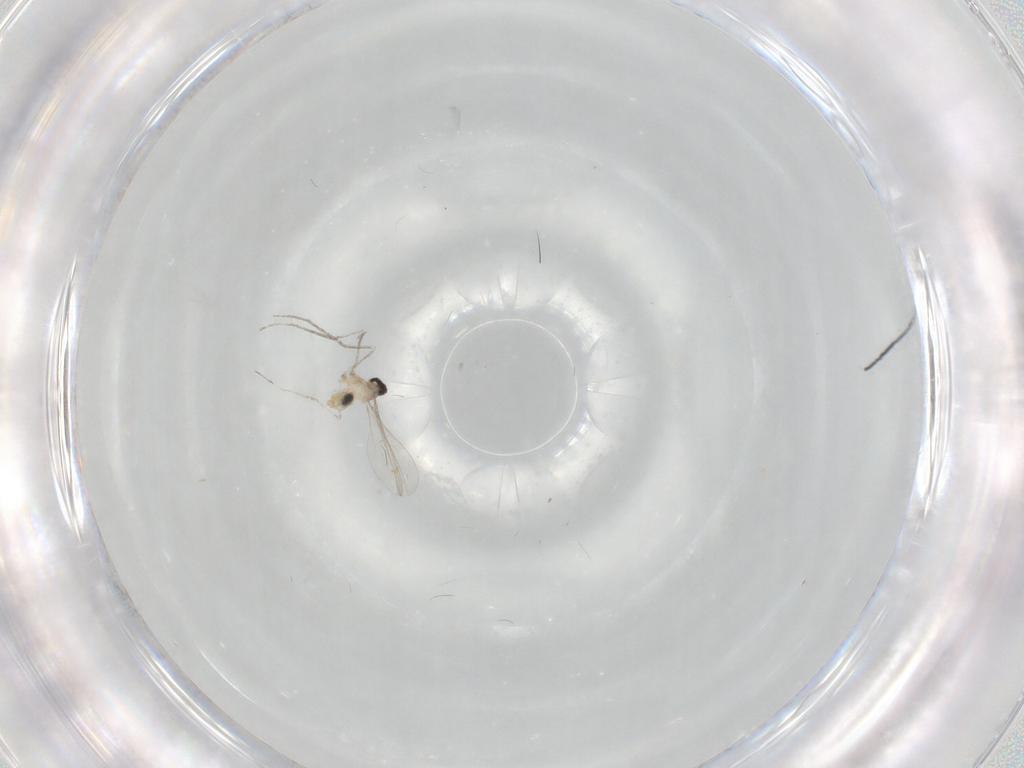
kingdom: Animalia
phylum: Arthropoda
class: Insecta
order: Diptera
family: Cecidomyiidae
